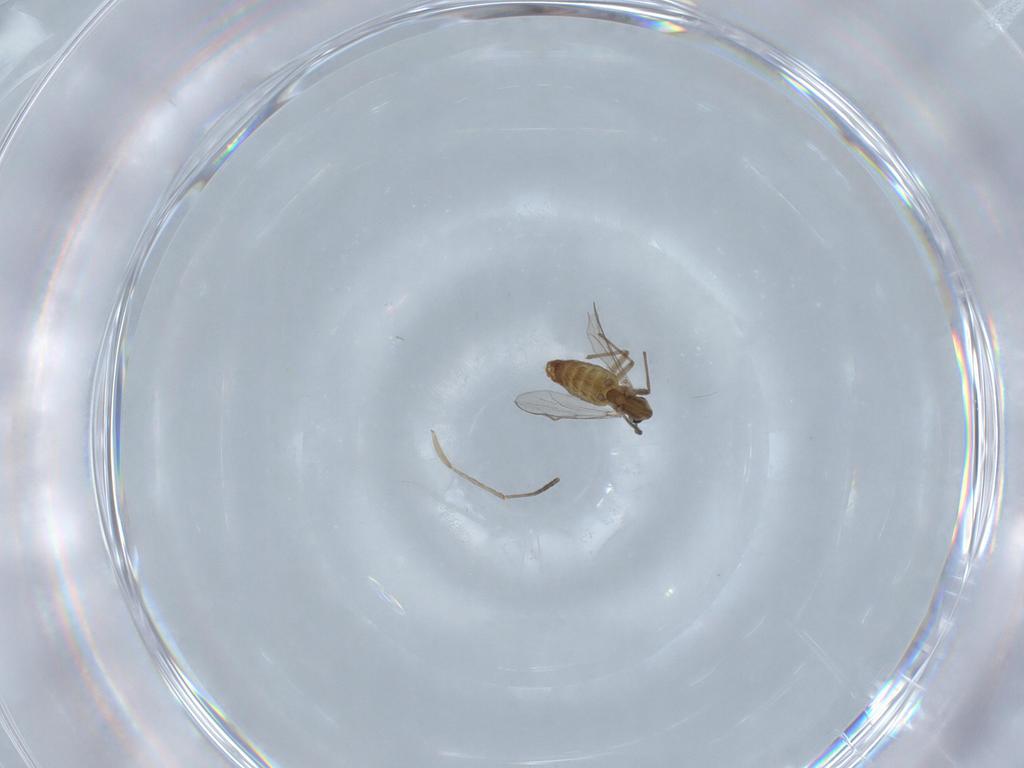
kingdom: Animalia
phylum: Arthropoda
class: Insecta
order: Diptera
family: Chironomidae
